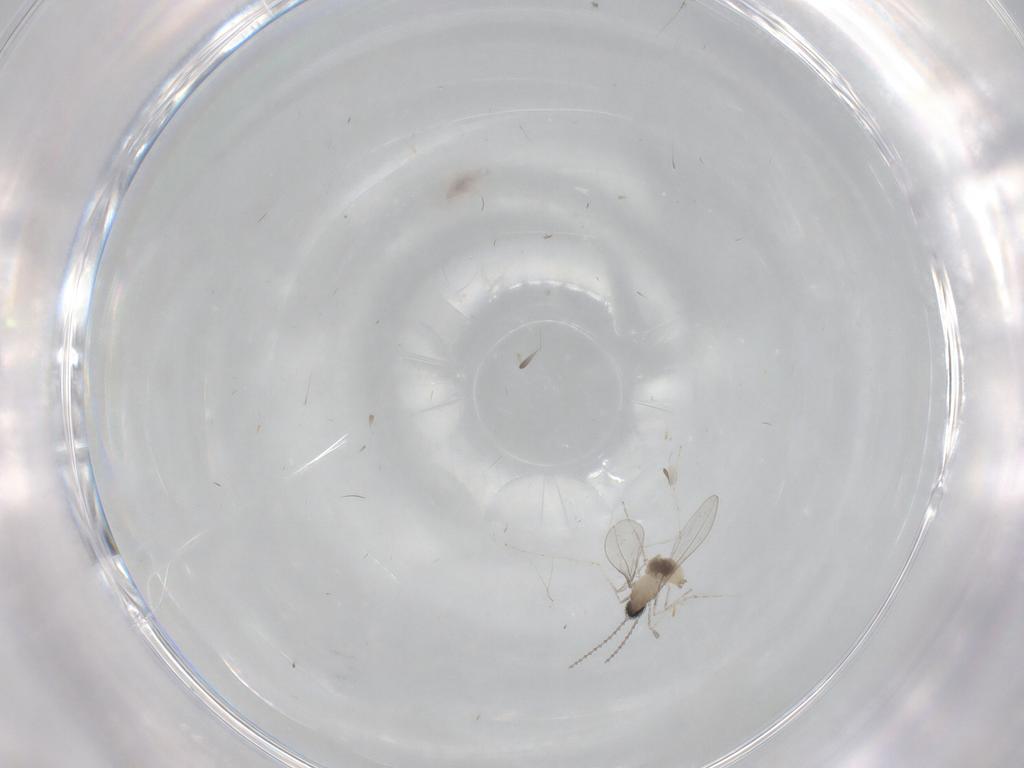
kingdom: Animalia
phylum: Arthropoda
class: Insecta
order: Diptera
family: Cecidomyiidae
